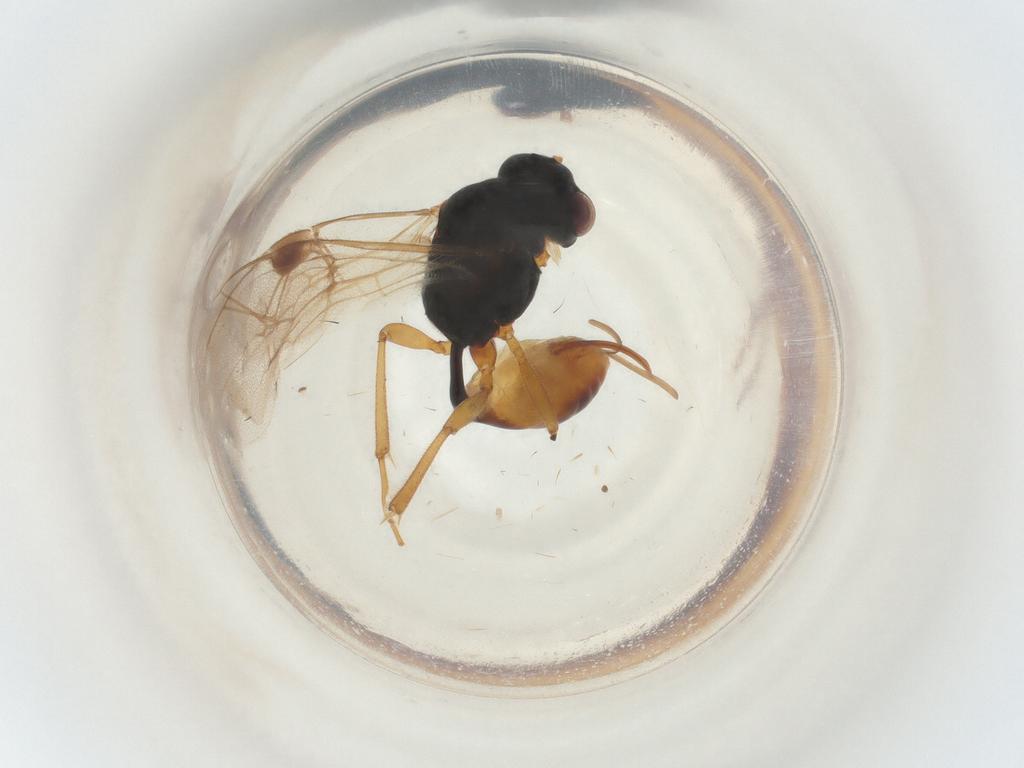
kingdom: Animalia
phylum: Arthropoda
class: Insecta
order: Hymenoptera
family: Ichneumonidae
